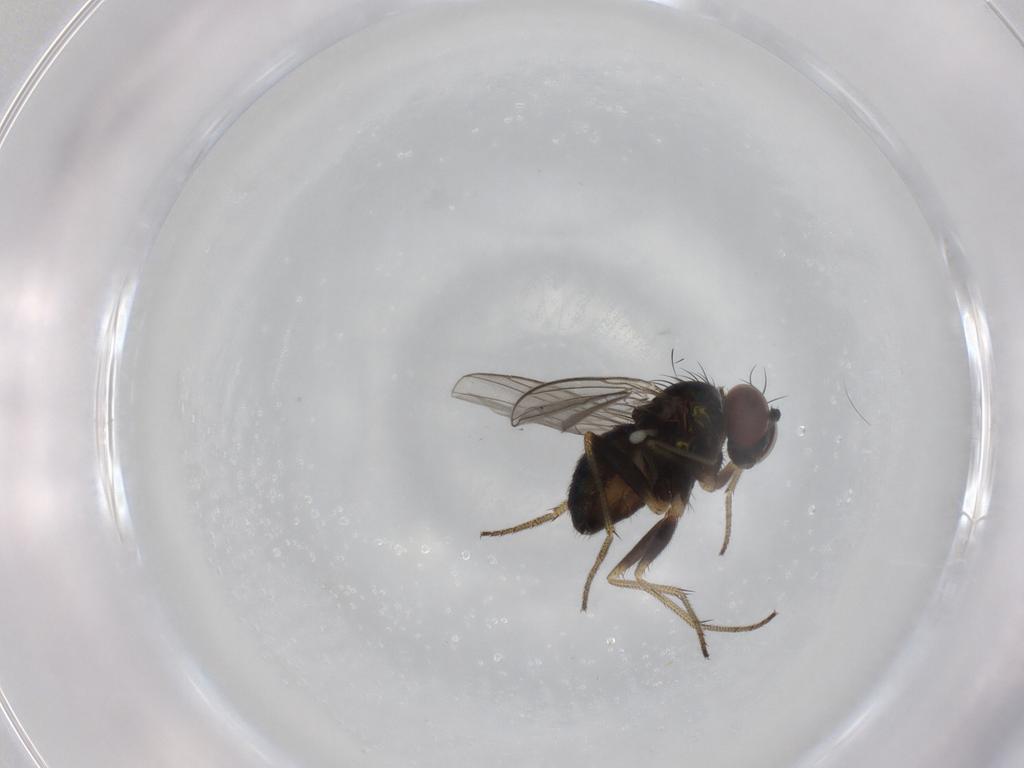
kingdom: Animalia
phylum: Arthropoda
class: Insecta
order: Diptera
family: Dolichopodidae
